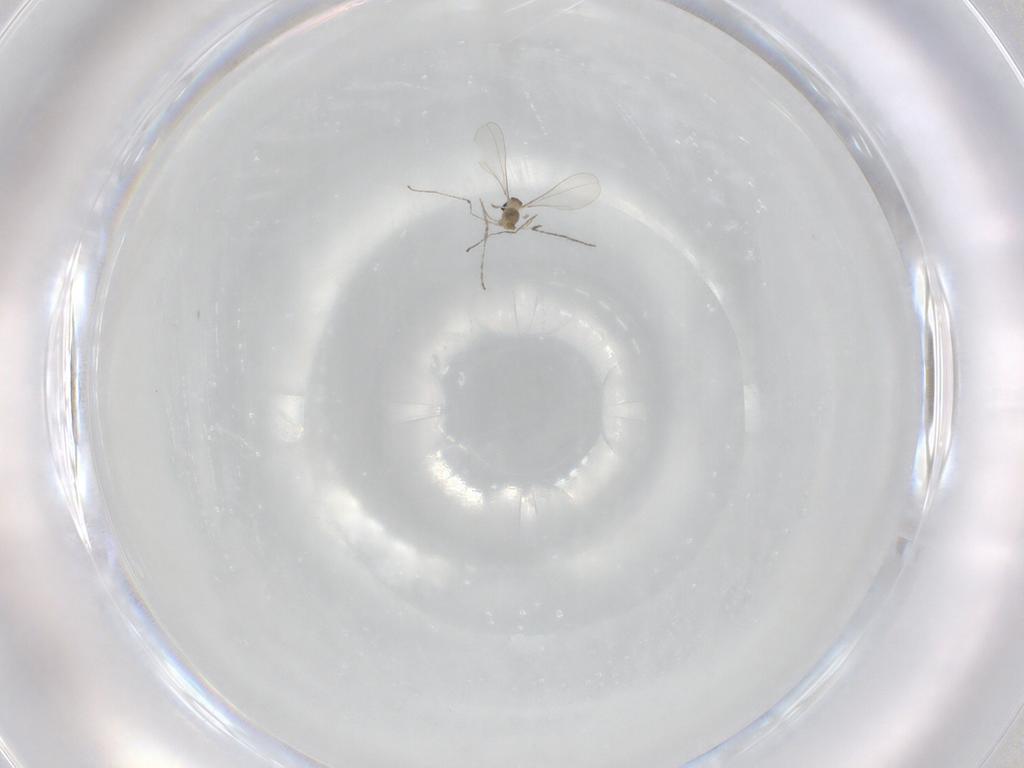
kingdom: Animalia
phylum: Arthropoda
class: Insecta
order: Diptera
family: Cecidomyiidae
